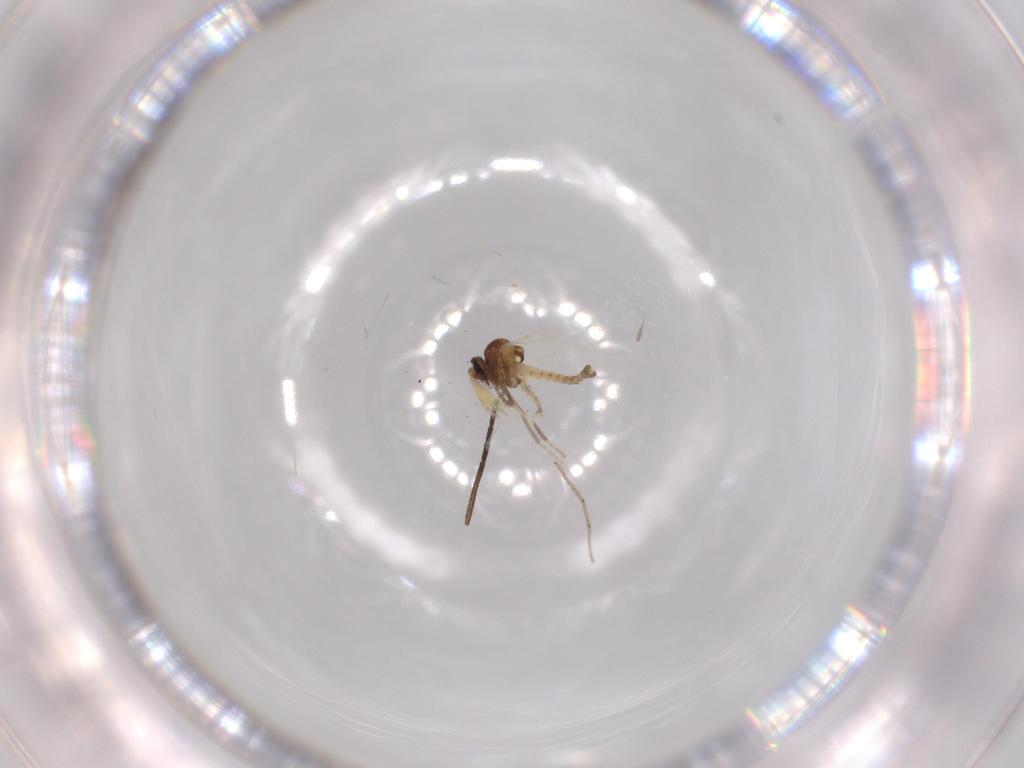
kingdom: Animalia
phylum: Arthropoda
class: Insecta
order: Diptera
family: Ceratopogonidae
